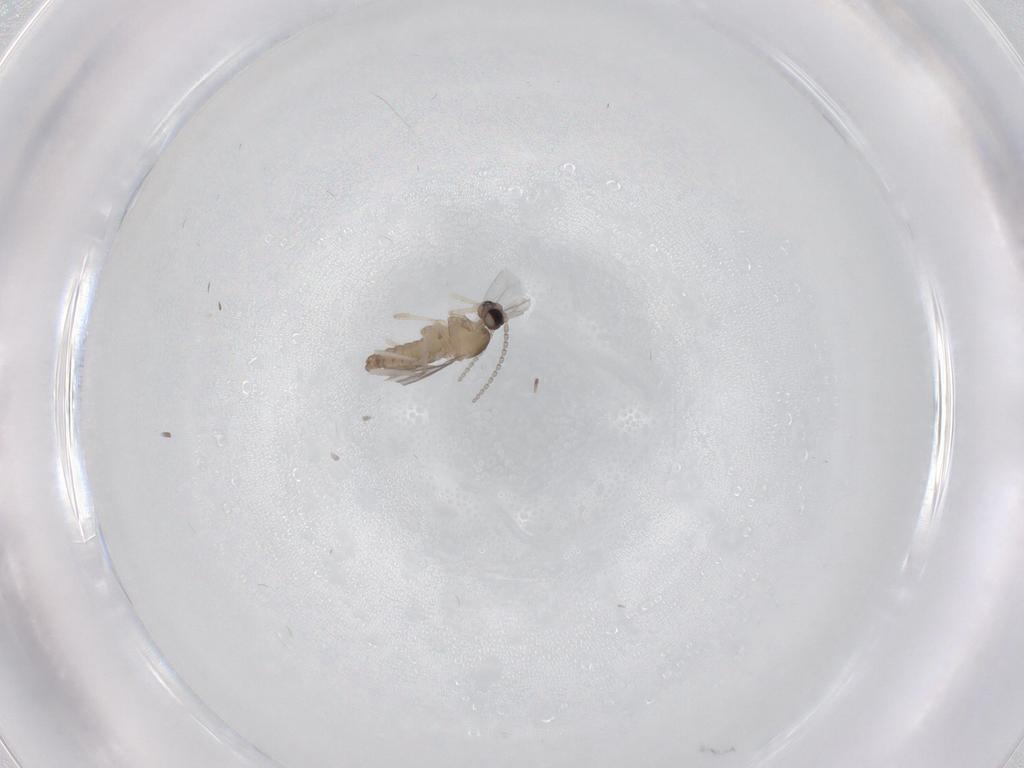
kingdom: Animalia
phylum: Arthropoda
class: Insecta
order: Diptera
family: Cecidomyiidae
